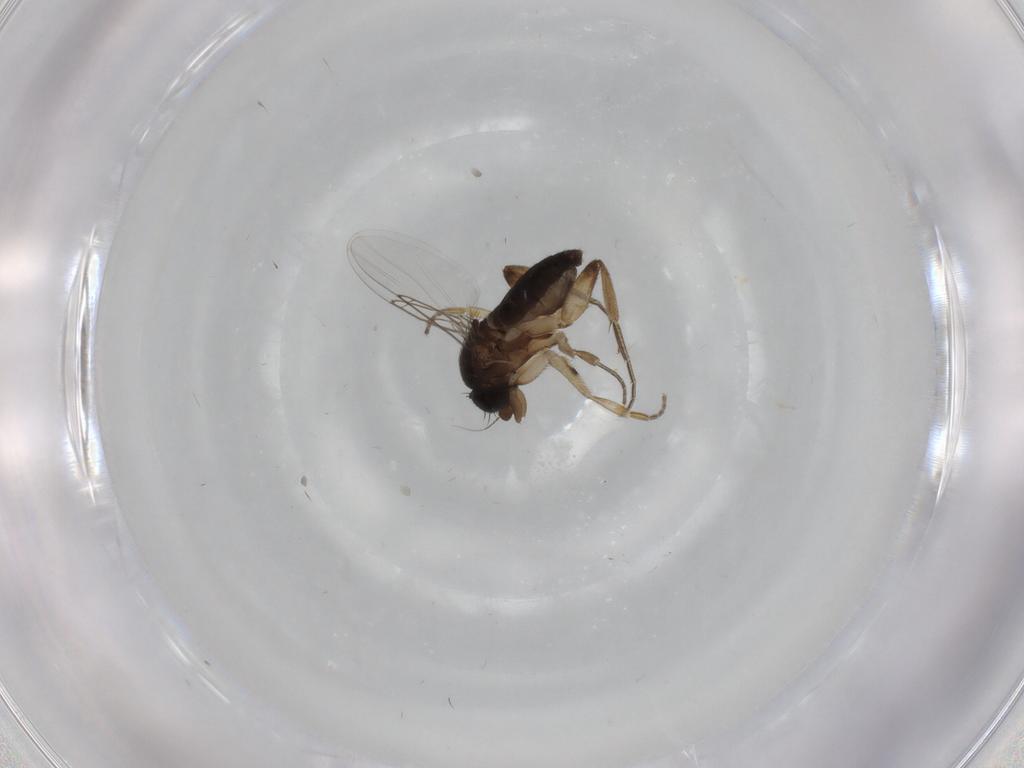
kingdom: Animalia
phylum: Arthropoda
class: Insecta
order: Diptera
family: Phoridae
